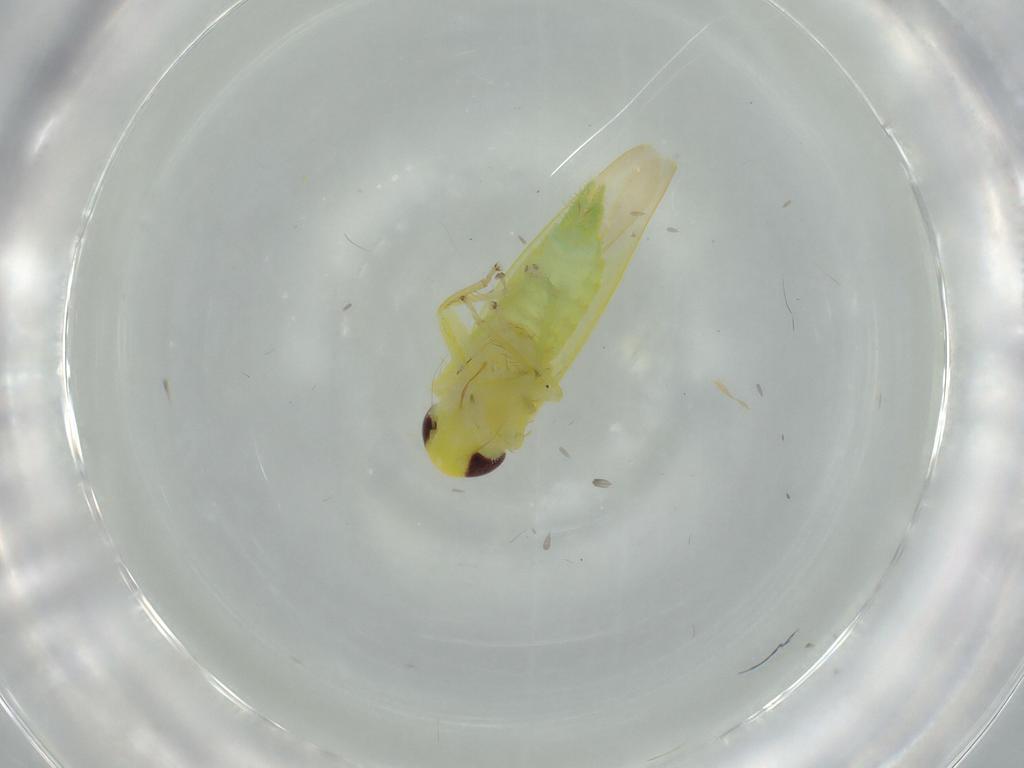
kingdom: Animalia
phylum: Arthropoda
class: Insecta
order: Hemiptera
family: Cicadellidae
